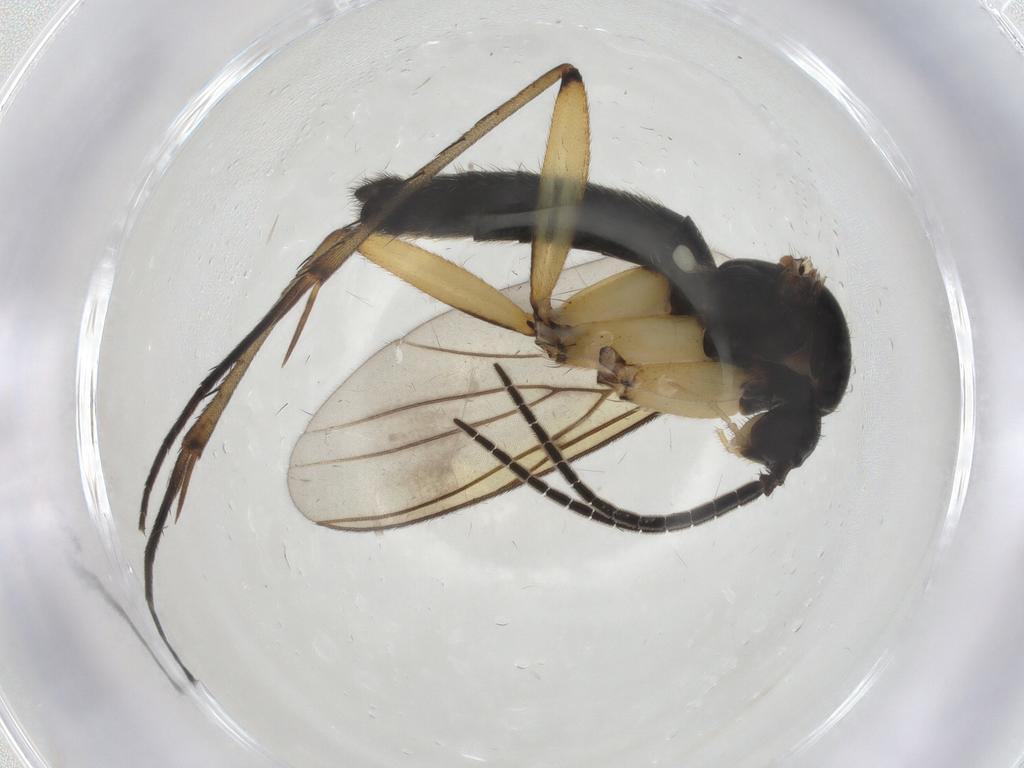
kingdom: Animalia
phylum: Arthropoda
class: Insecta
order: Diptera
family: Mycetophilidae
